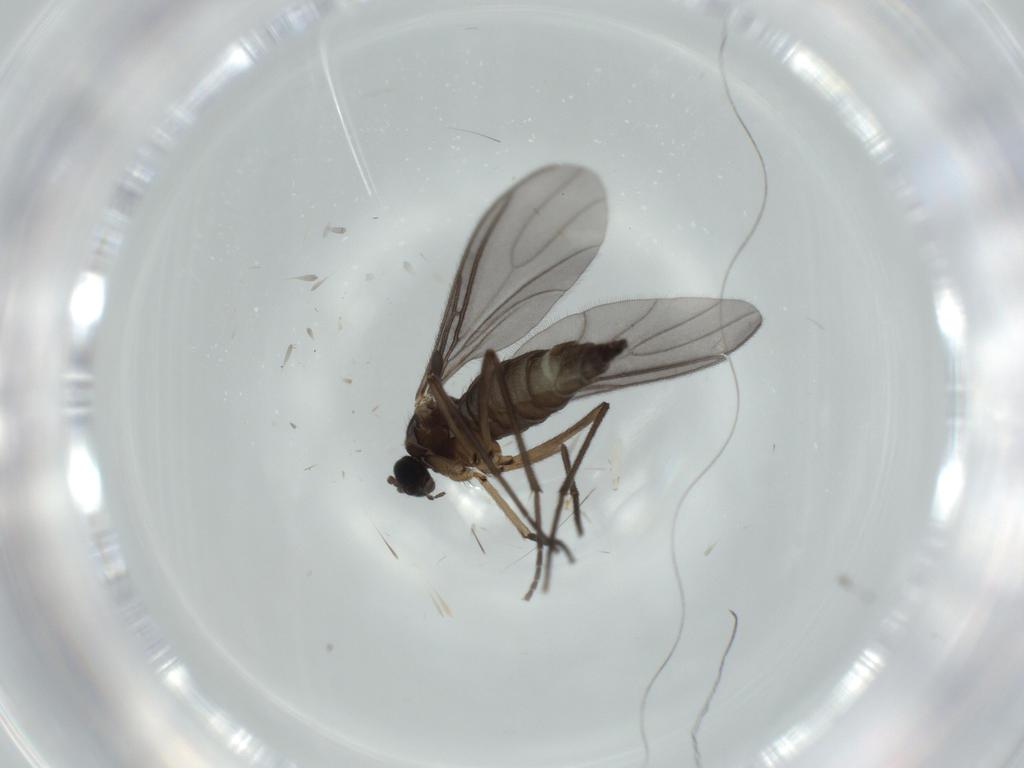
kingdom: Animalia
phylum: Arthropoda
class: Insecta
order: Diptera
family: Sciaridae
